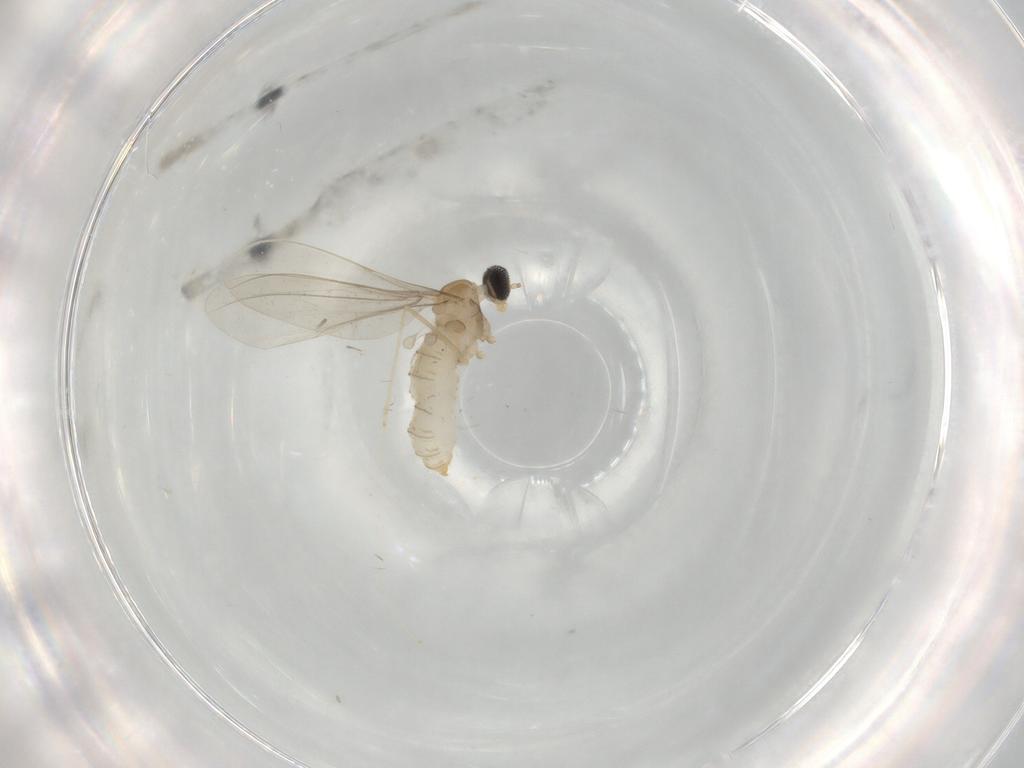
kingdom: Animalia
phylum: Arthropoda
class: Insecta
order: Diptera
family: Cecidomyiidae
